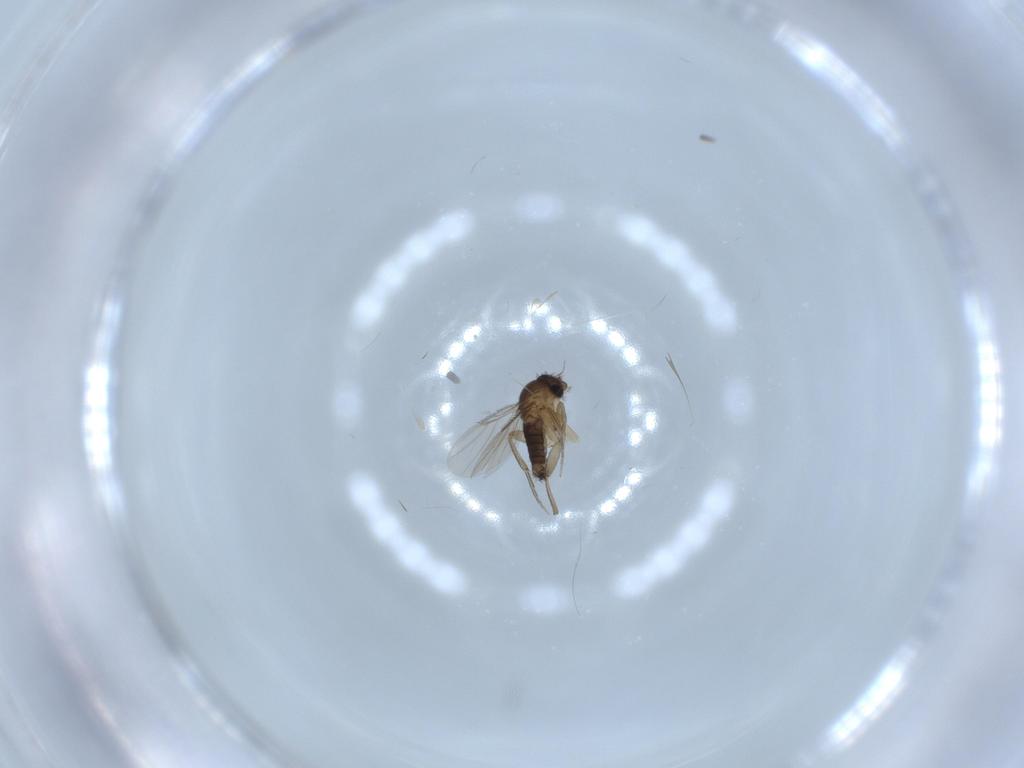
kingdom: Animalia
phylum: Arthropoda
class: Insecta
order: Diptera
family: Phoridae
